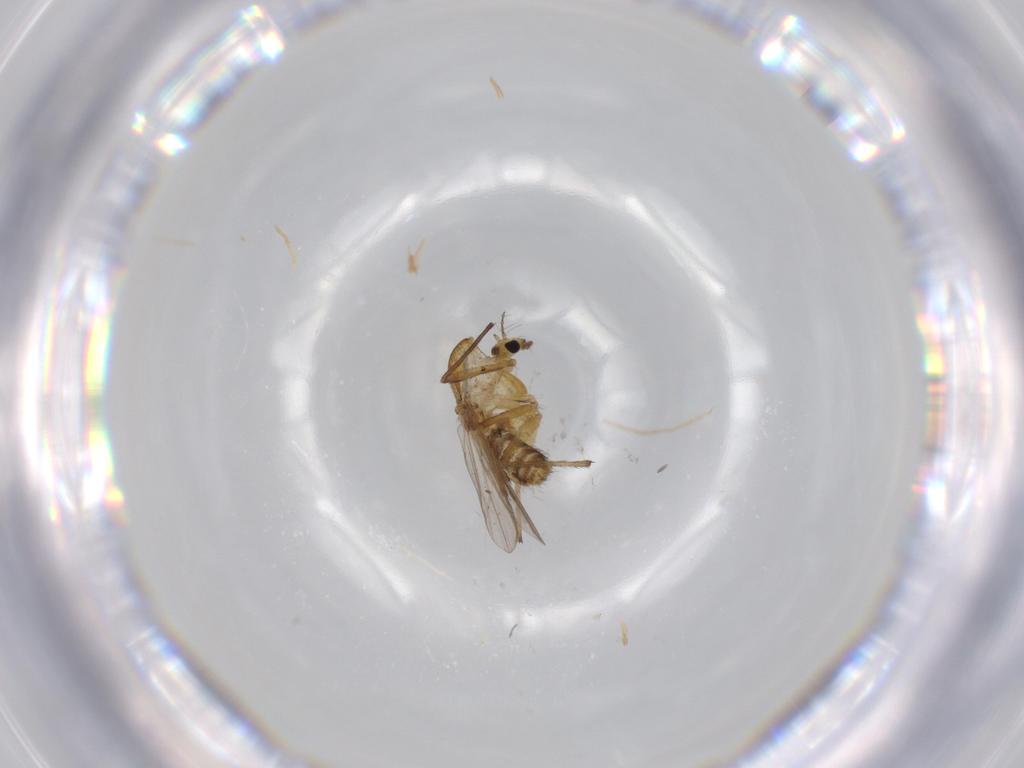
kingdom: Animalia
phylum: Arthropoda
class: Insecta
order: Diptera
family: Chironomidae
